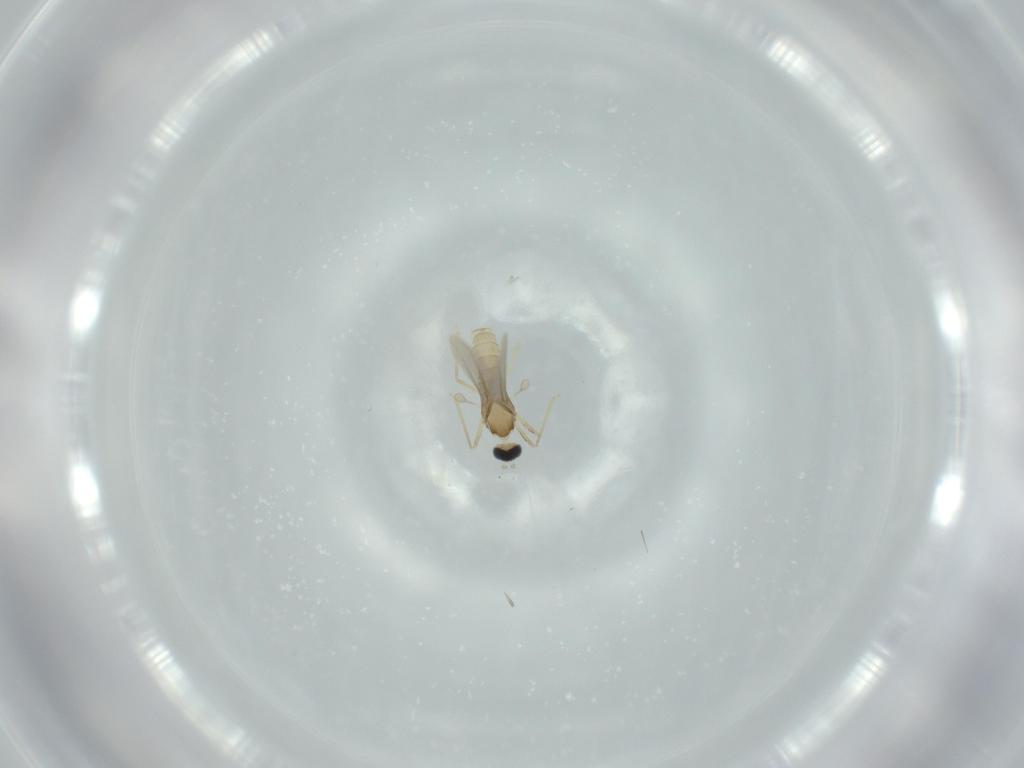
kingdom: Animalia
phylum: Arthropoda
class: Insecta
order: Diptera
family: Cecidomyiidae
